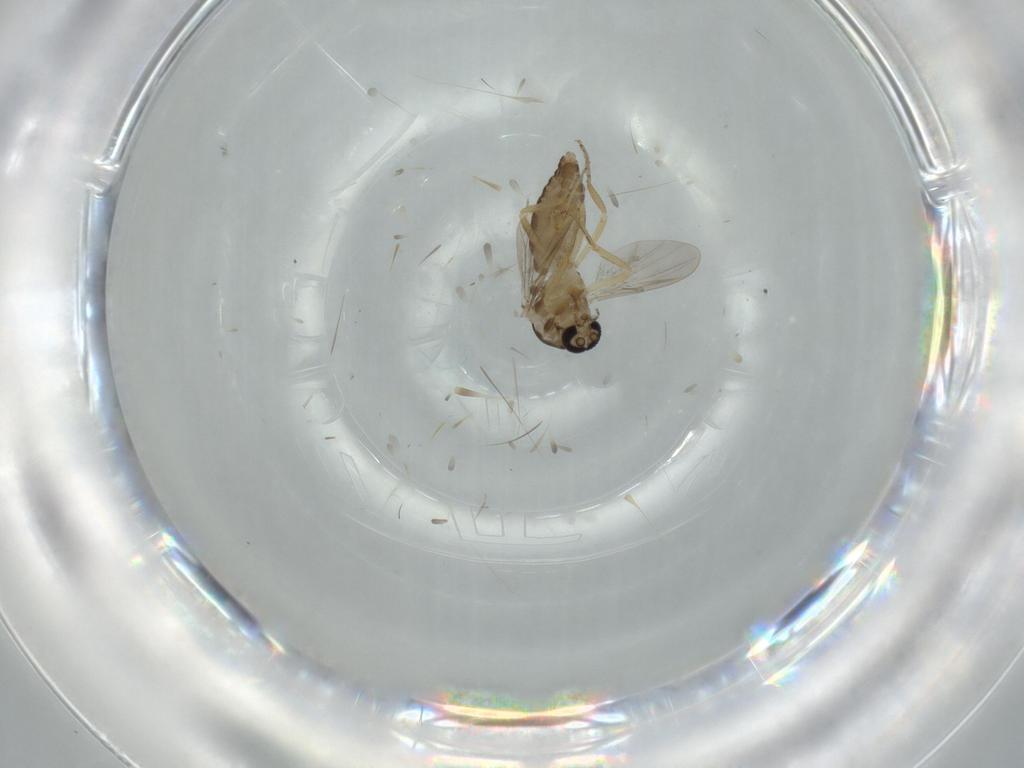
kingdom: Animalia
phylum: Arthropoda
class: Insecta
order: Diptera
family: Ceratopogonidae
